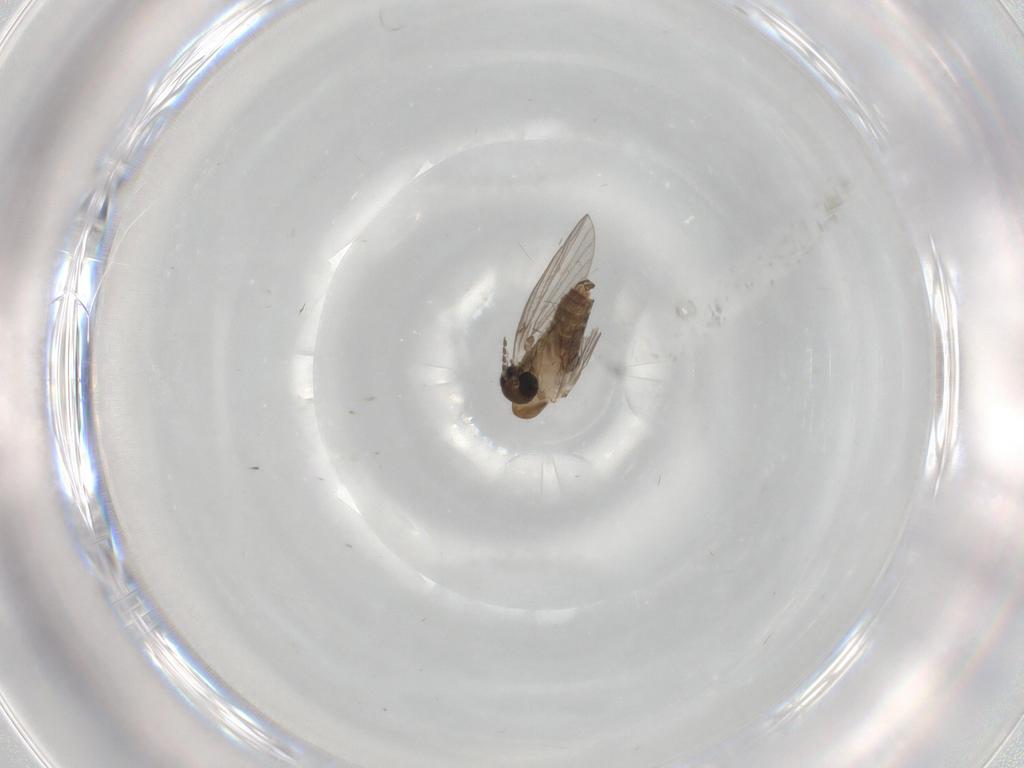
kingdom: Animalia
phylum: Arthropoda
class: Insecta
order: Diptera
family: Psychodidae
